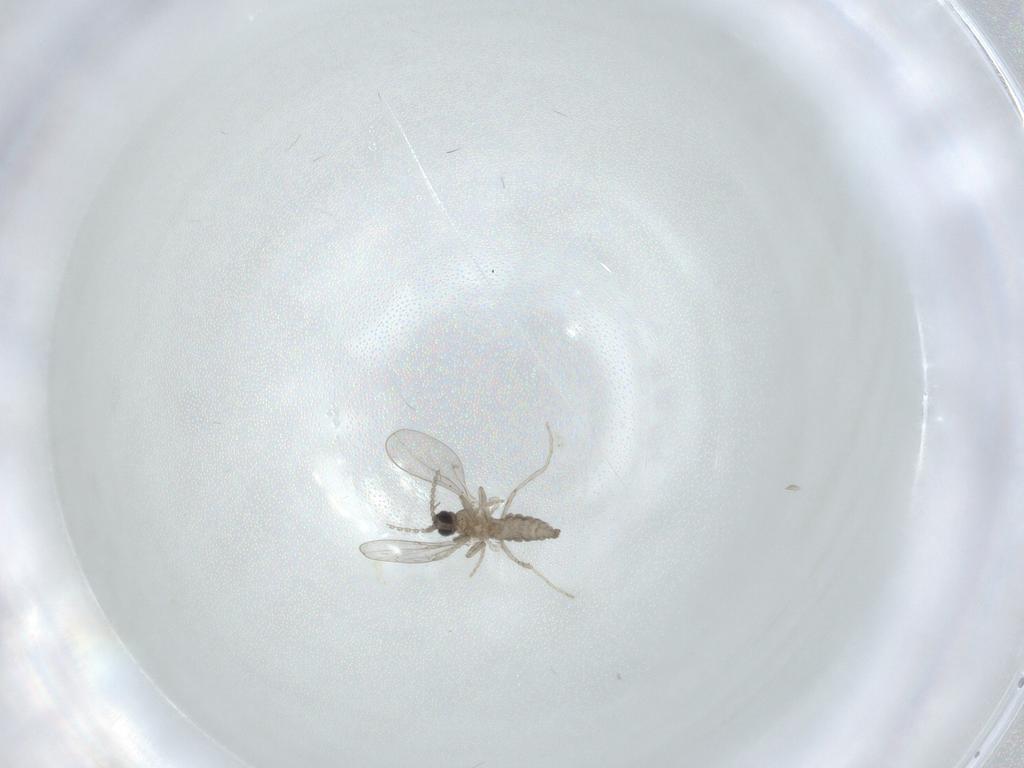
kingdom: Animalia
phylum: Arthropoda
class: Insecta
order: Diptera
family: Cecidomyiidae
